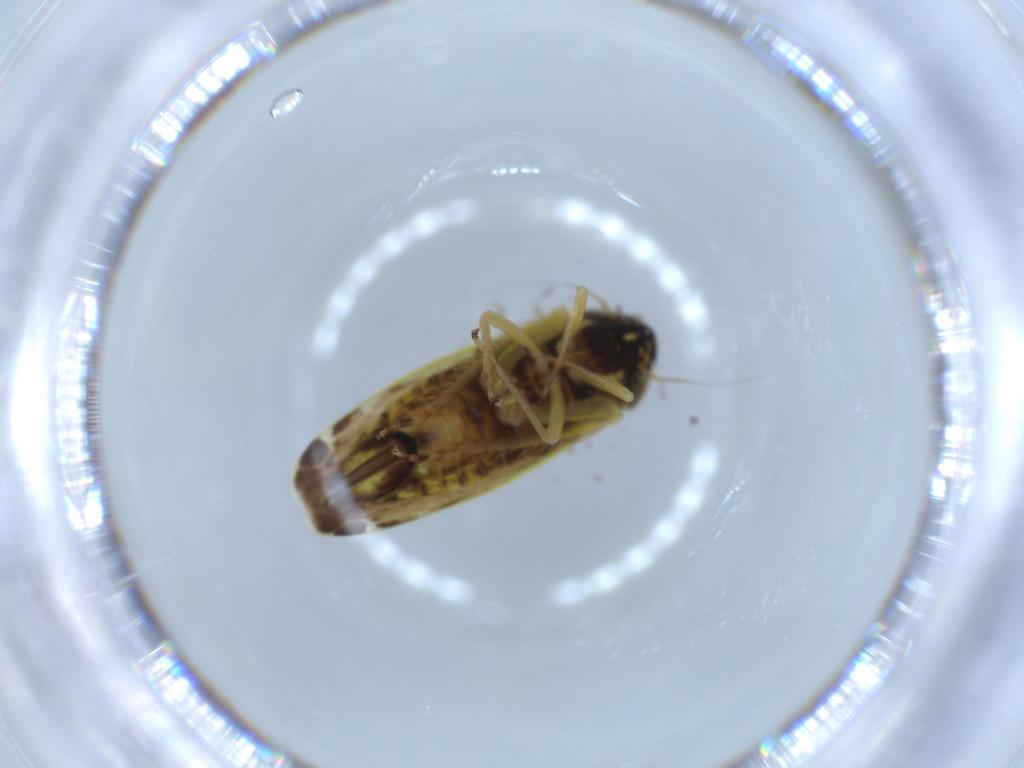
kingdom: Animalia
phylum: Arthropoda
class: Insecta
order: Hemiptera
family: Cicadellidae
